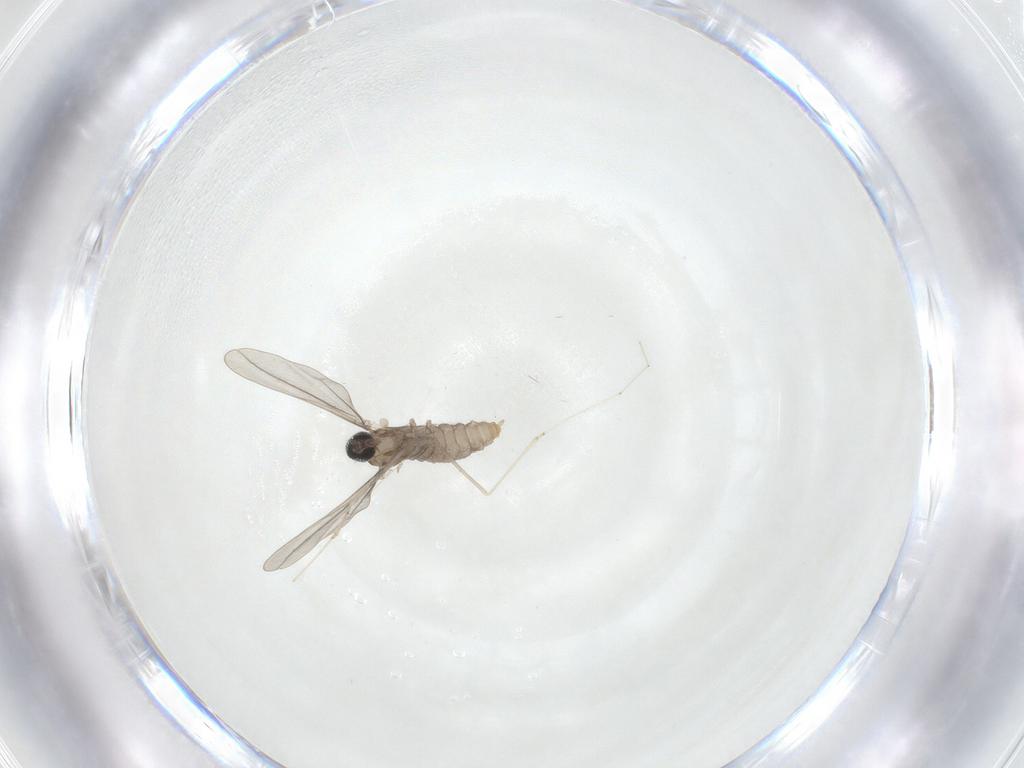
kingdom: Animalia
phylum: Arthropoda
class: Insecta
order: Diptera
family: Cecidomyiidae
